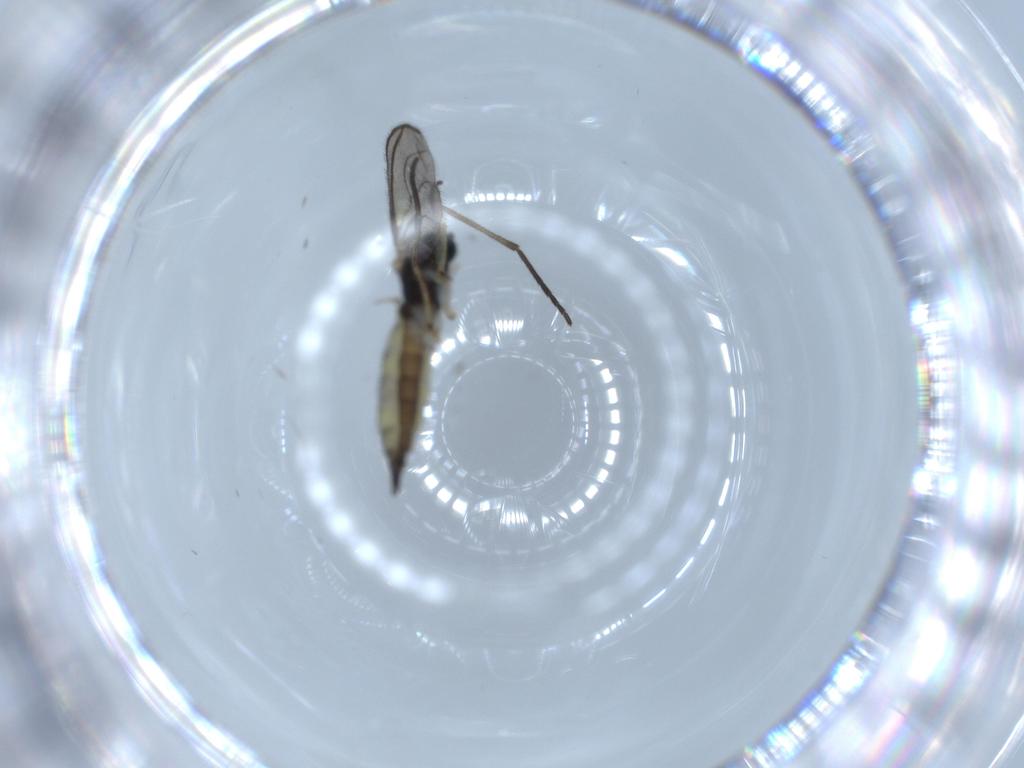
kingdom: Animalia
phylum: Arthropoda
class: Insecta
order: Diptera
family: Sciaridae
